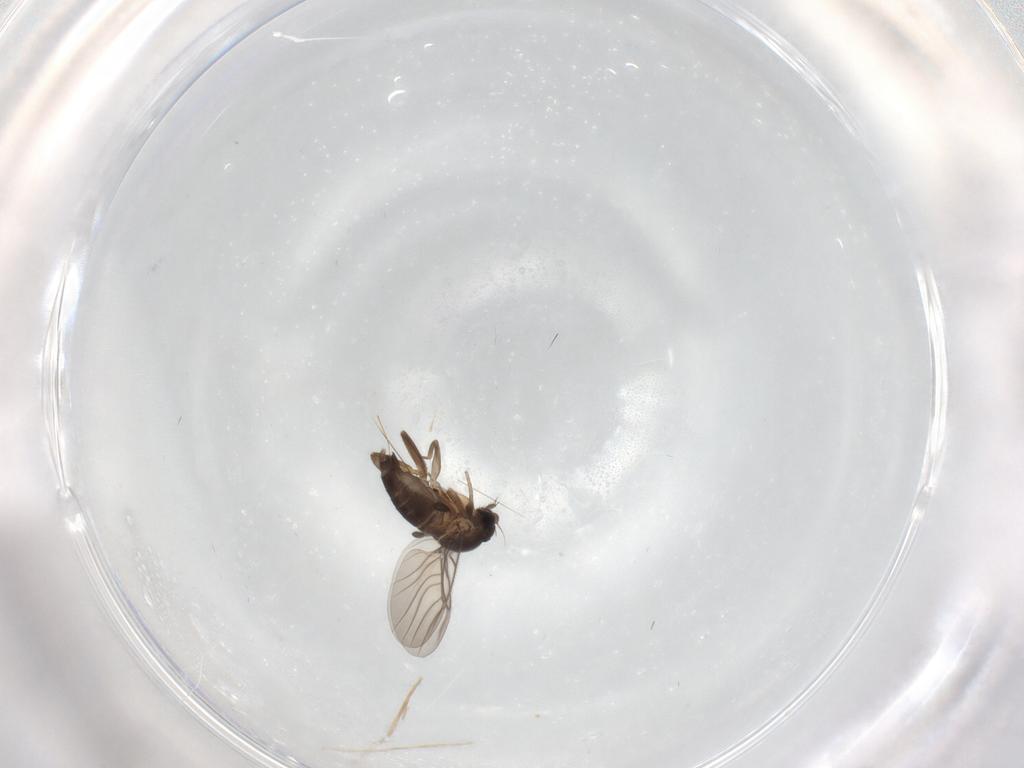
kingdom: Animalia
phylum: Arthropoda
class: Insecta
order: Diptera
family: Phoridae
